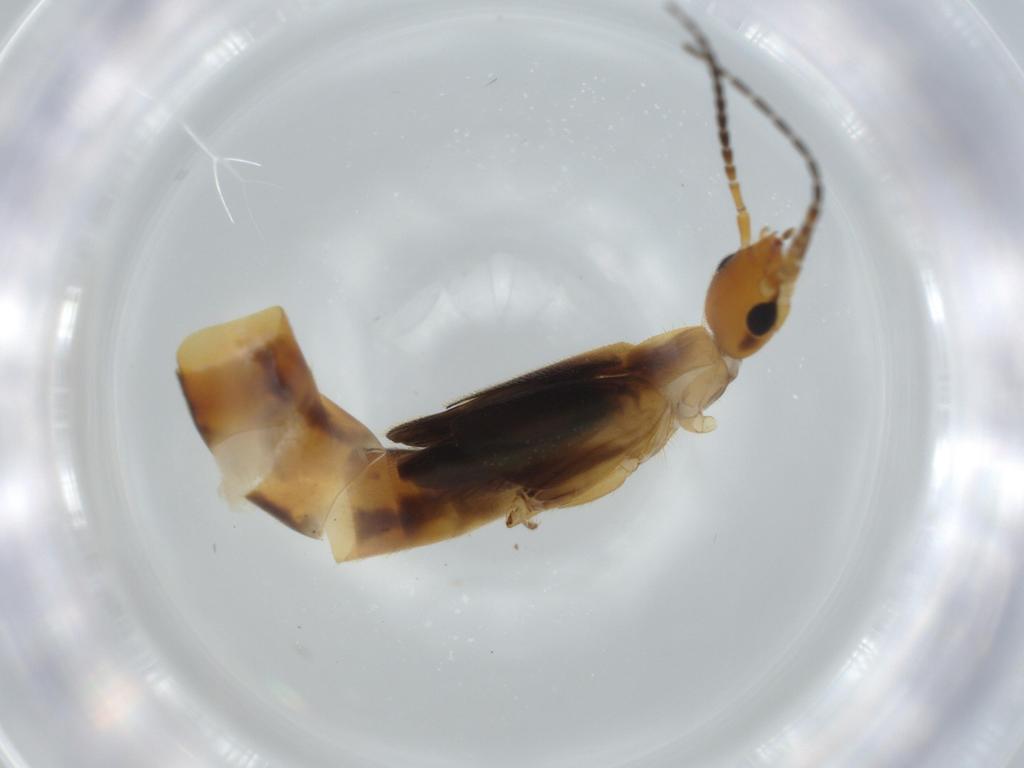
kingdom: Animalia
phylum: Arthropoda
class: Insecta
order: Dermaptera
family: Forficulidae
